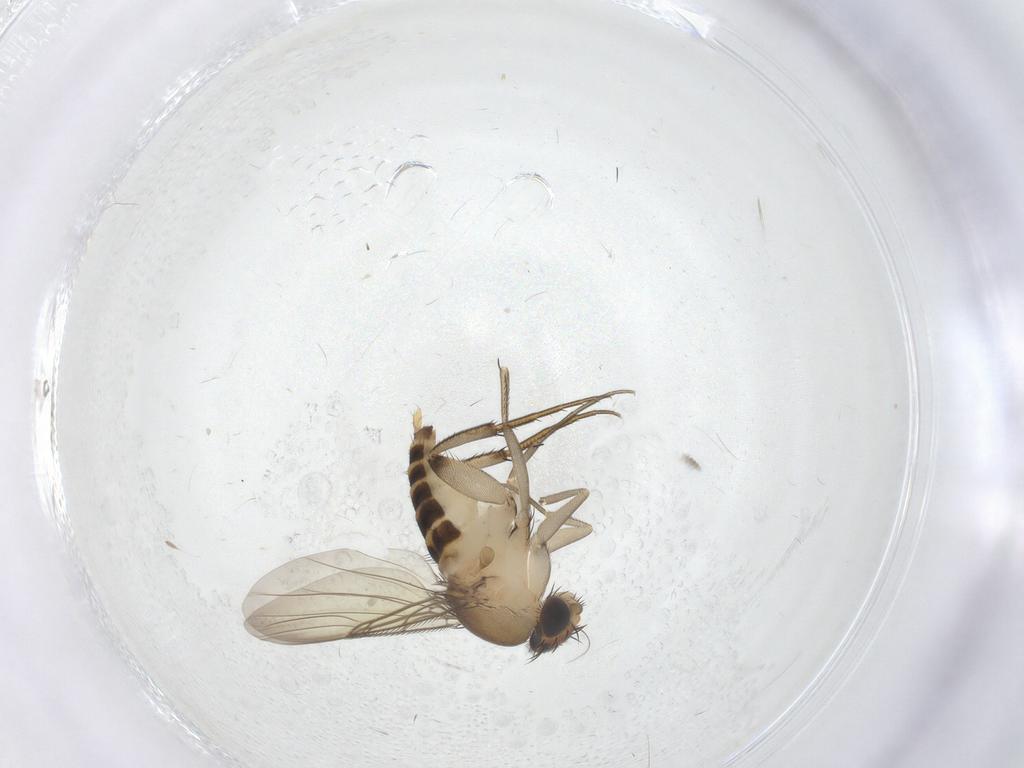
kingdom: Animalia
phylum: Arthropoda
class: Insecta
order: Diptera
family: Phoridae
